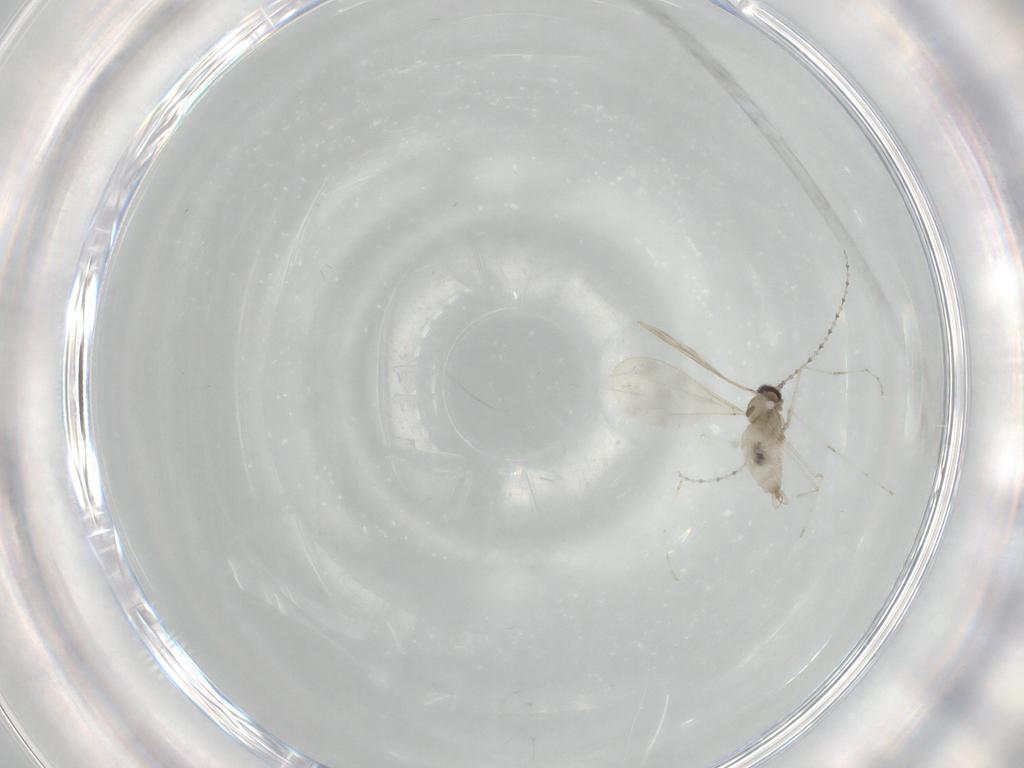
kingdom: Animalia
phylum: Arthropoda
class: Insecta
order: Diptera
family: Cecidomyiidae
